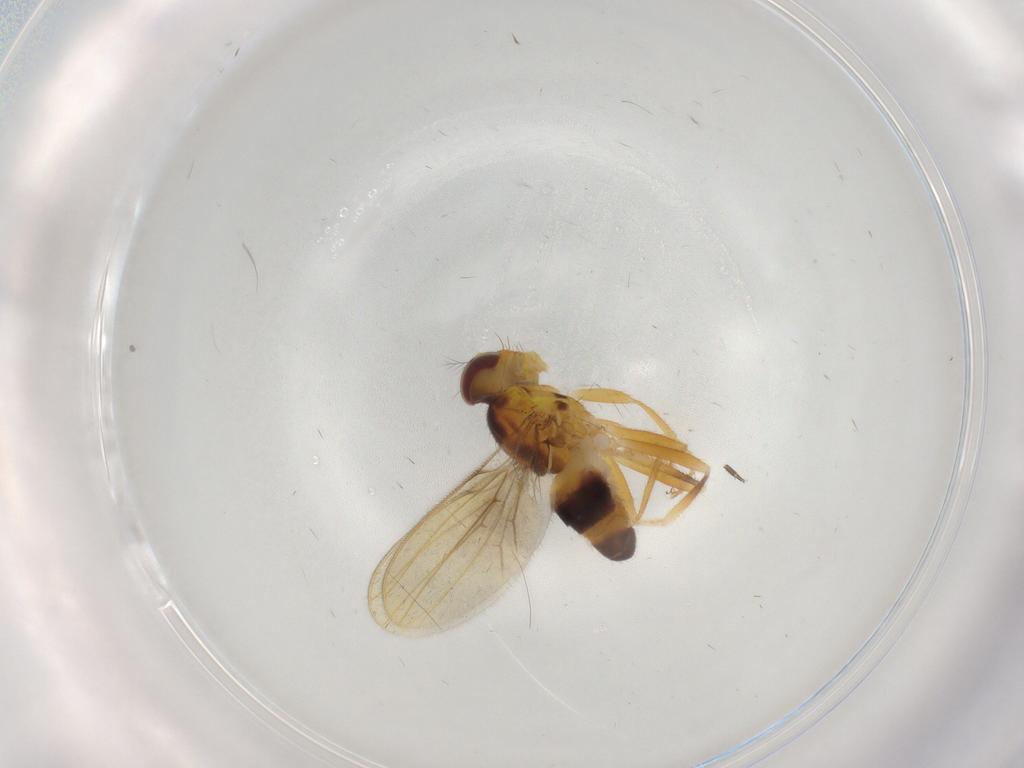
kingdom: Animalia
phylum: Arthropoda
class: Insecta
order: Diptera
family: Periscelididae
